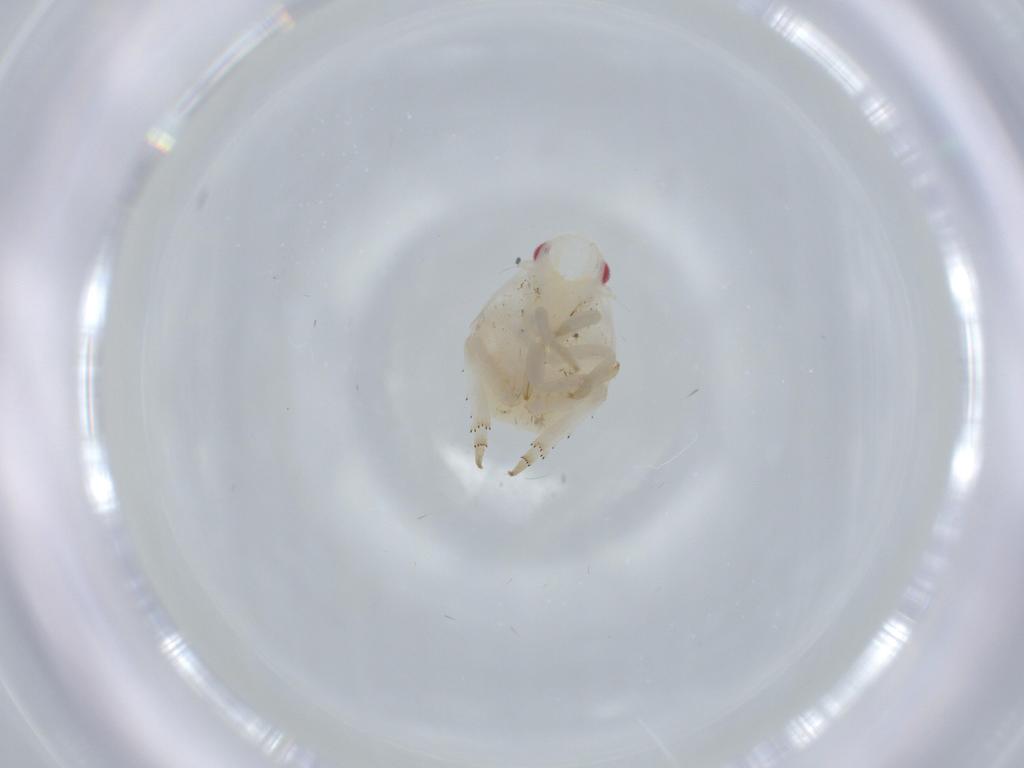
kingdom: Animalia
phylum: Arthropoda
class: Insecta
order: Hemiptera
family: Flatidae
